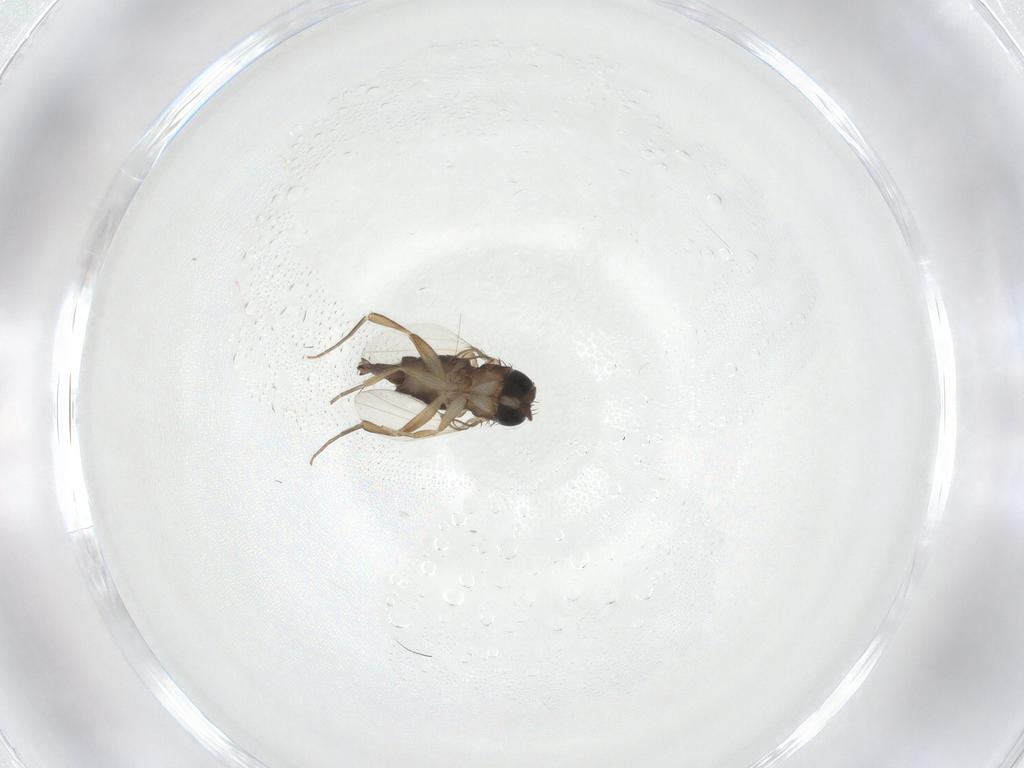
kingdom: Animalia
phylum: Arthropoda
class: Insecta
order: Diptera
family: Phoridae
